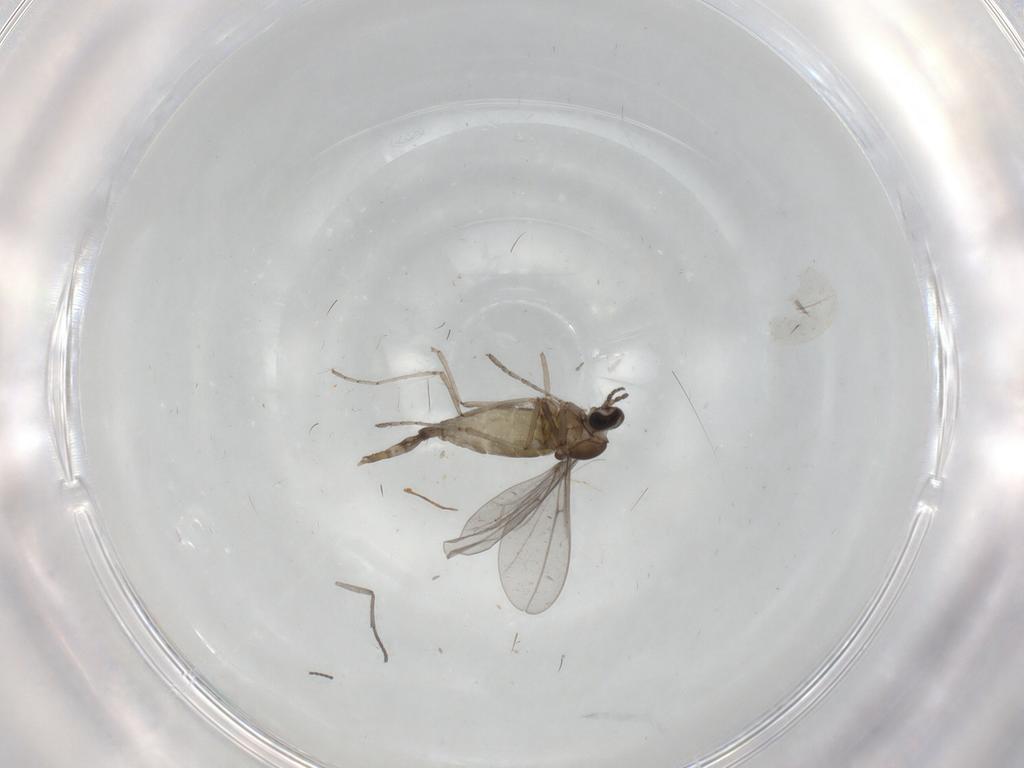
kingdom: Animalia
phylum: Arthropoda
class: Insecta
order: Diptera
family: Sciaridae
